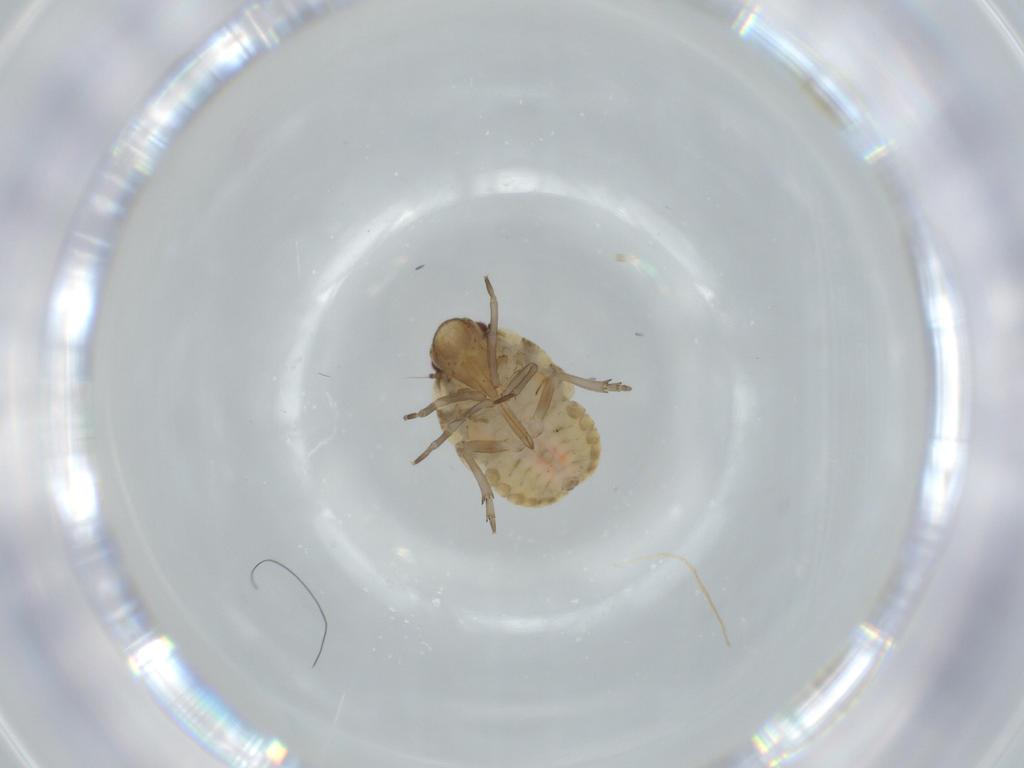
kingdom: Animalia
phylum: Arthropoda
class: Insecta
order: Hemiptera
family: Flatidae
